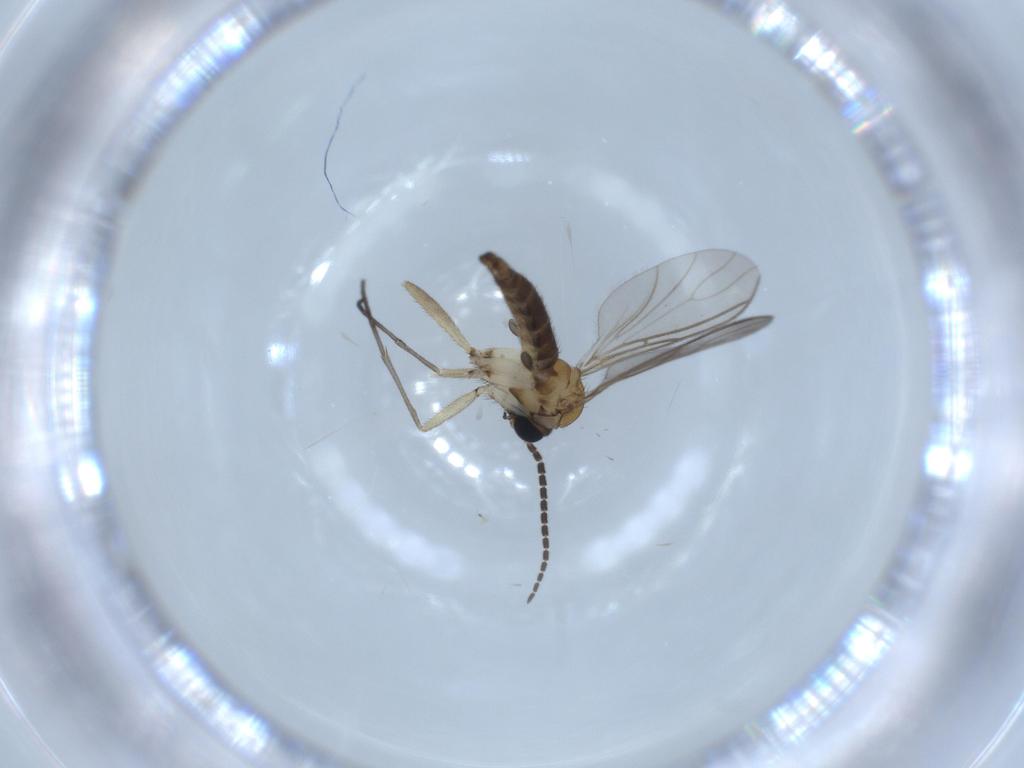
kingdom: Animalia
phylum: Arthropoda
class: Insecta
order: Diptera
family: Sciaridae
